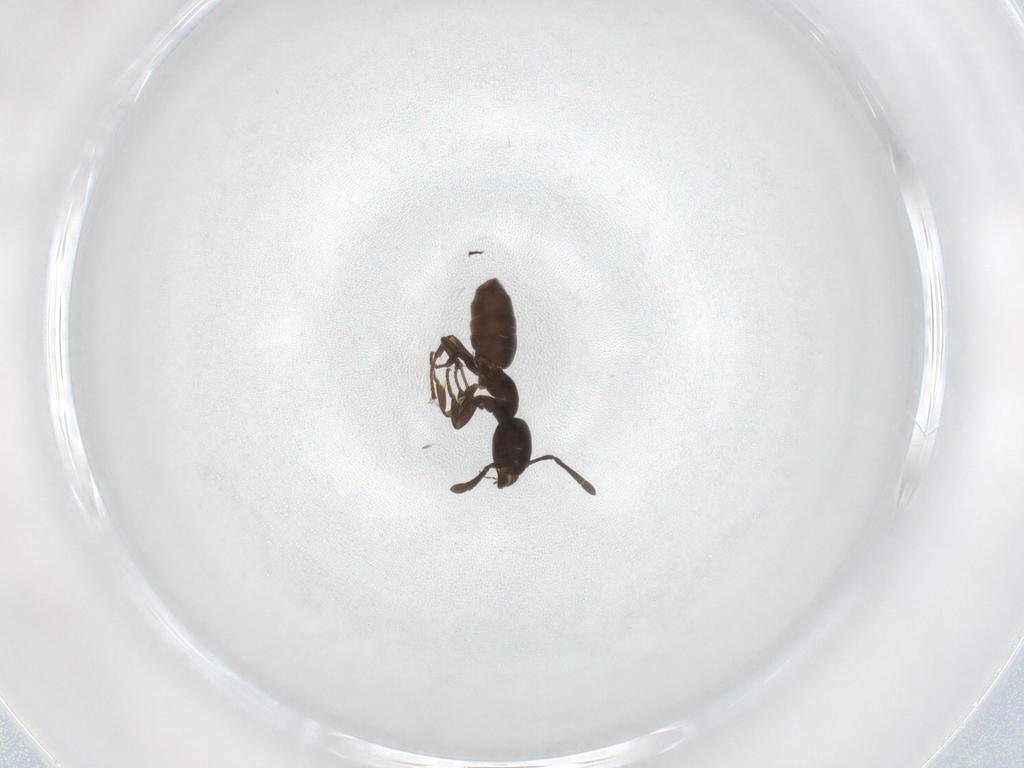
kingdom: Animalia
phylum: Arthropoda
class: Insecta
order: Hymenoptera
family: Formicidae
